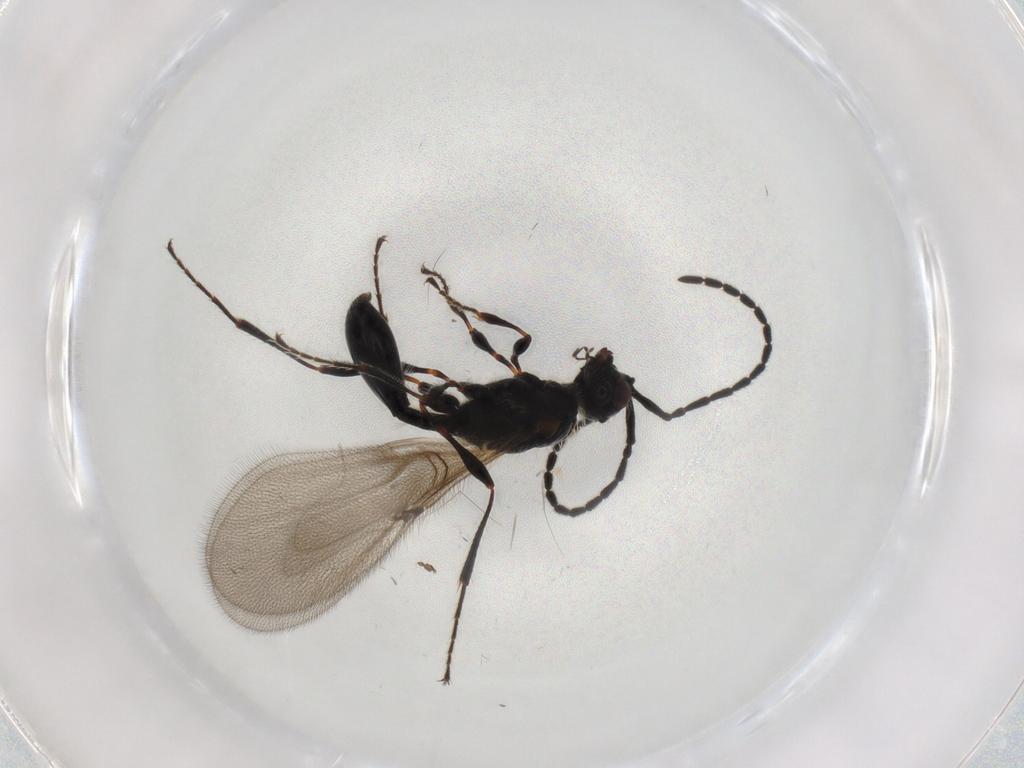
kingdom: Animalia
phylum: Arthropoda
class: Insecta
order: Hymenoptera
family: Diapriidae
